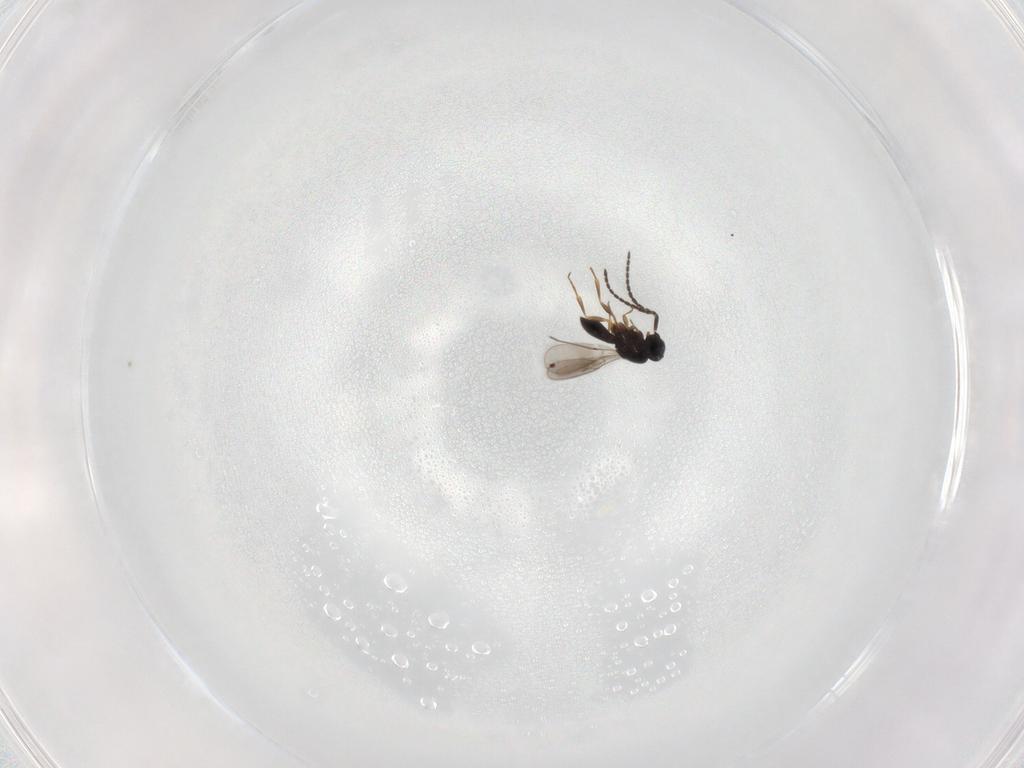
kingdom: Animalia
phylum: Arthropoda
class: Insecta
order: Hymenoptera
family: Scelionidae
